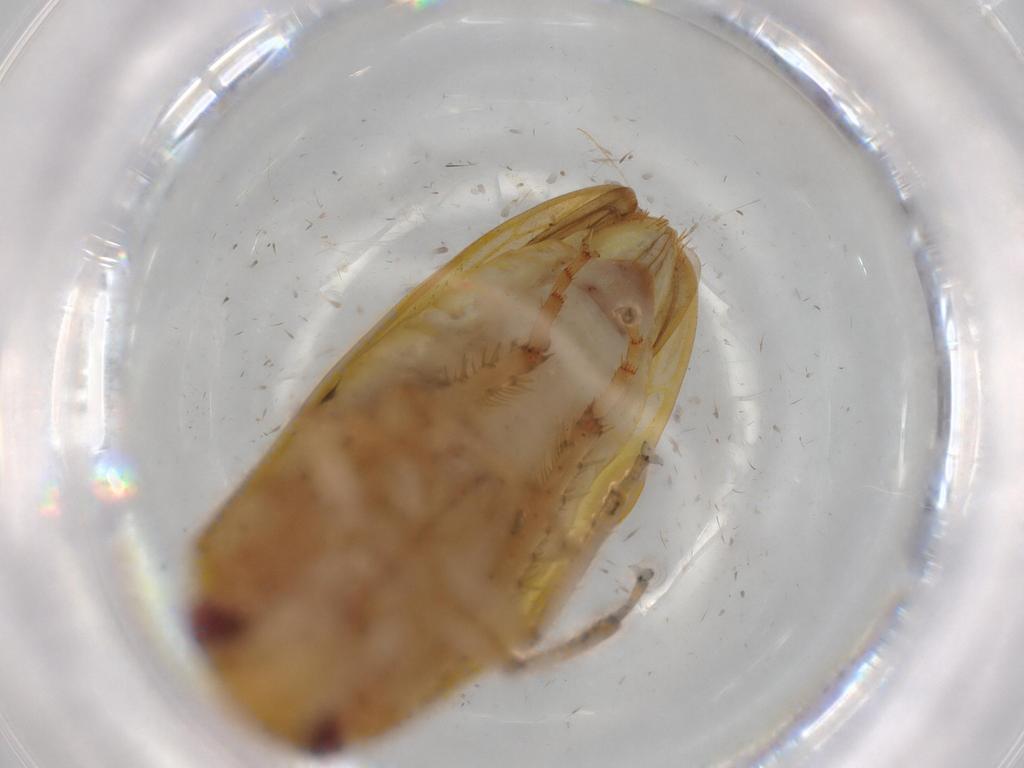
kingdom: Animalia
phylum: Arthropoda
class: Insecta
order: Hemiptera
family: Cicadellidae
